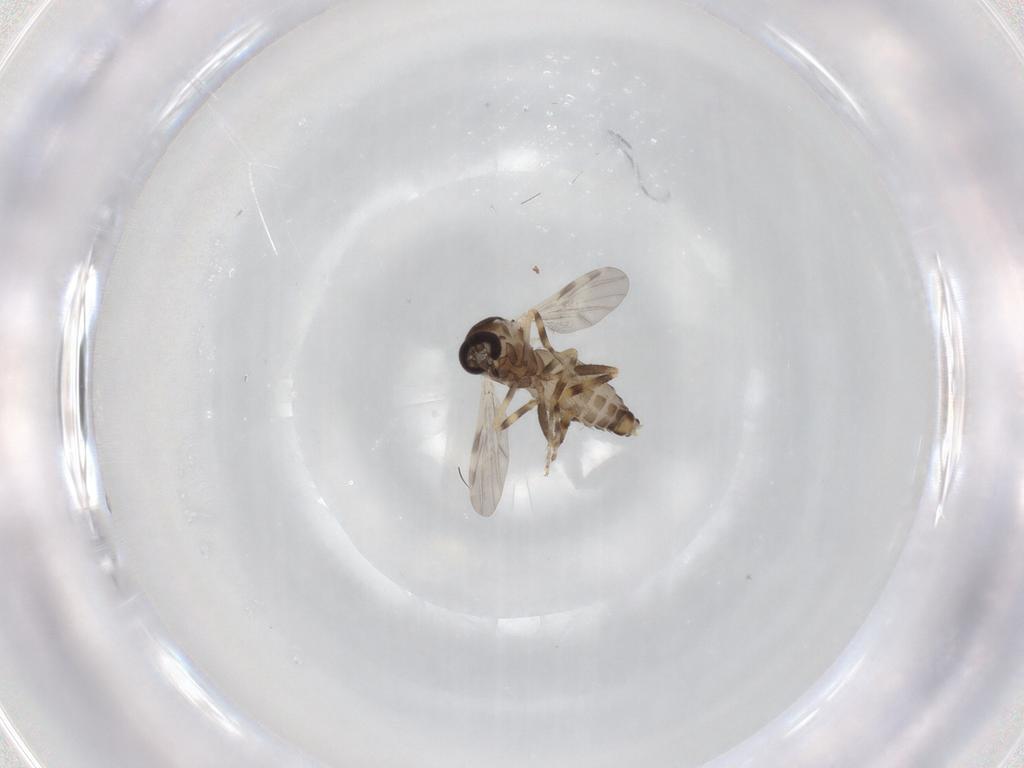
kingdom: Animalia
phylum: Arthropoda
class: Insecta
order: Diptera
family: Ceratopogonidae
